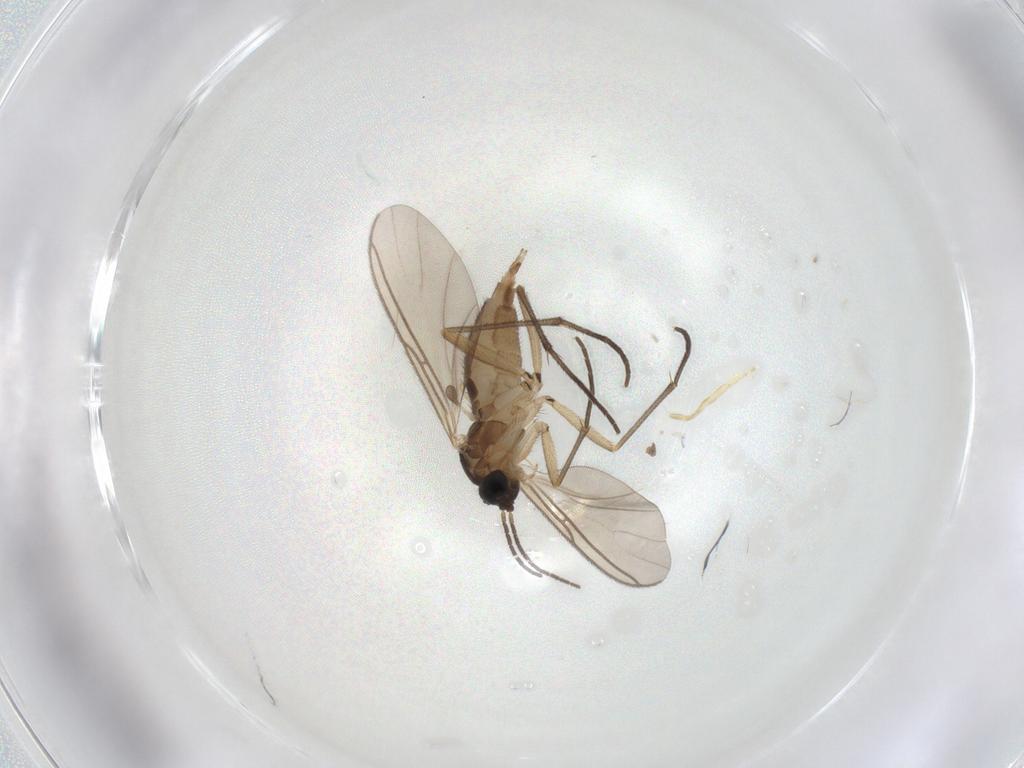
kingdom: Animalia
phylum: Arthropoda
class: Insecta
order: Diptera
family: Sciaridae
